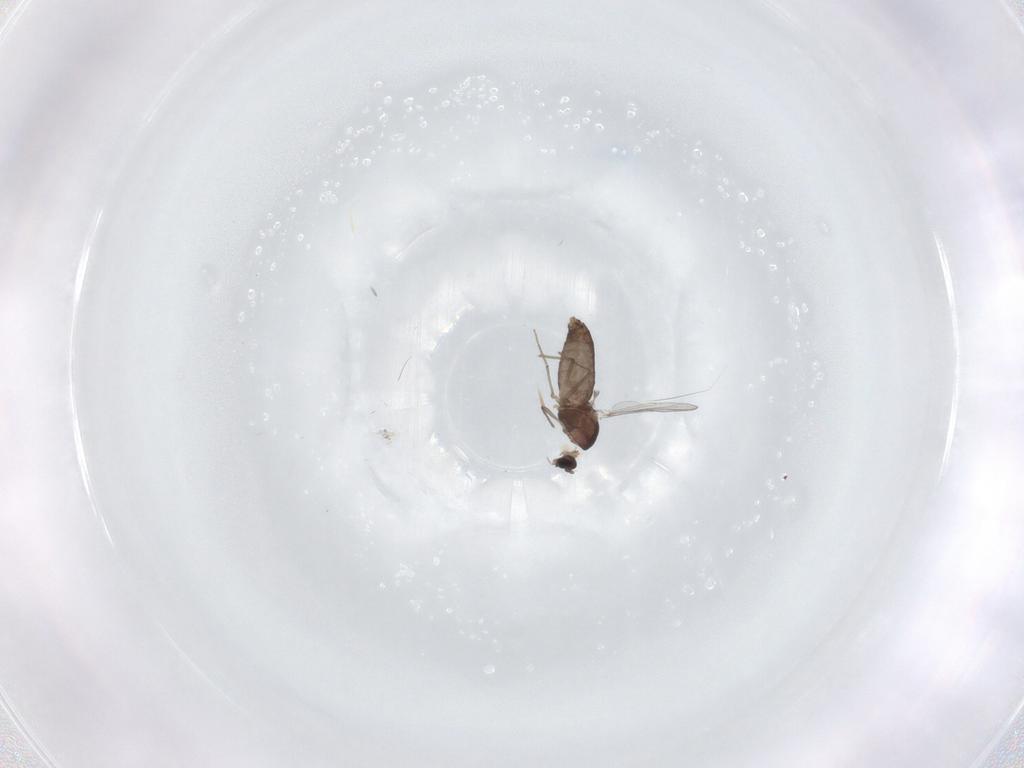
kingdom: Animalia
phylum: Arthropoda
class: Insecta
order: Diptera
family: Chironomidae
